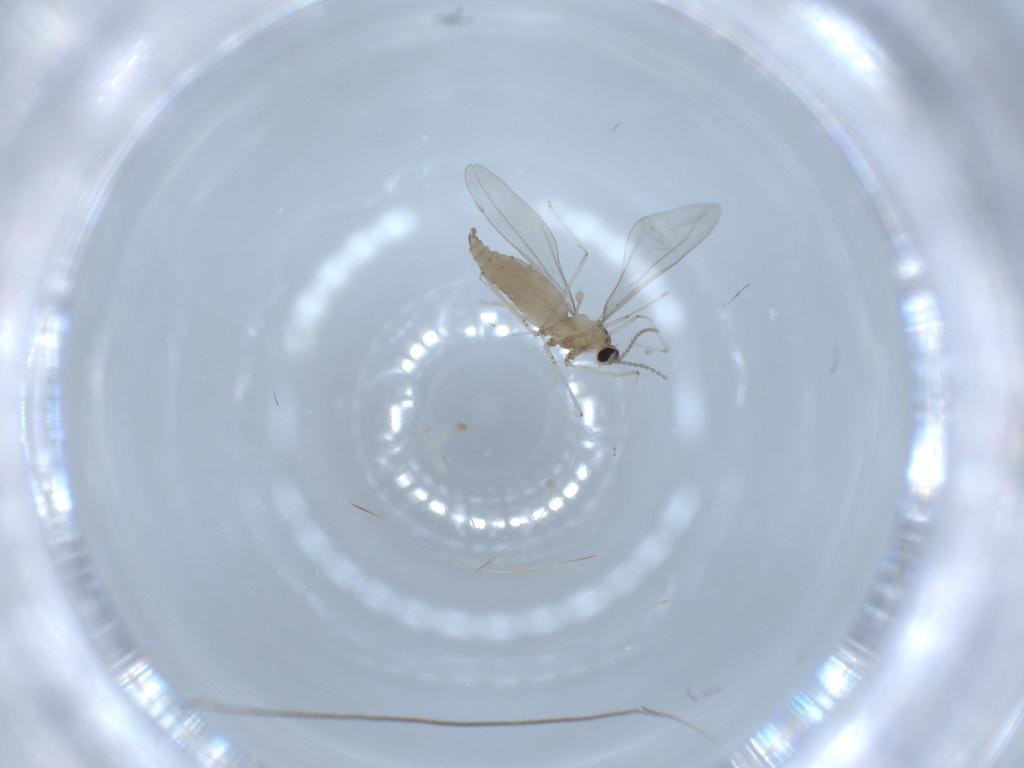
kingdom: Animalia
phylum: Arthropoda
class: Insecta
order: Diptera
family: Cecidomyiidae
